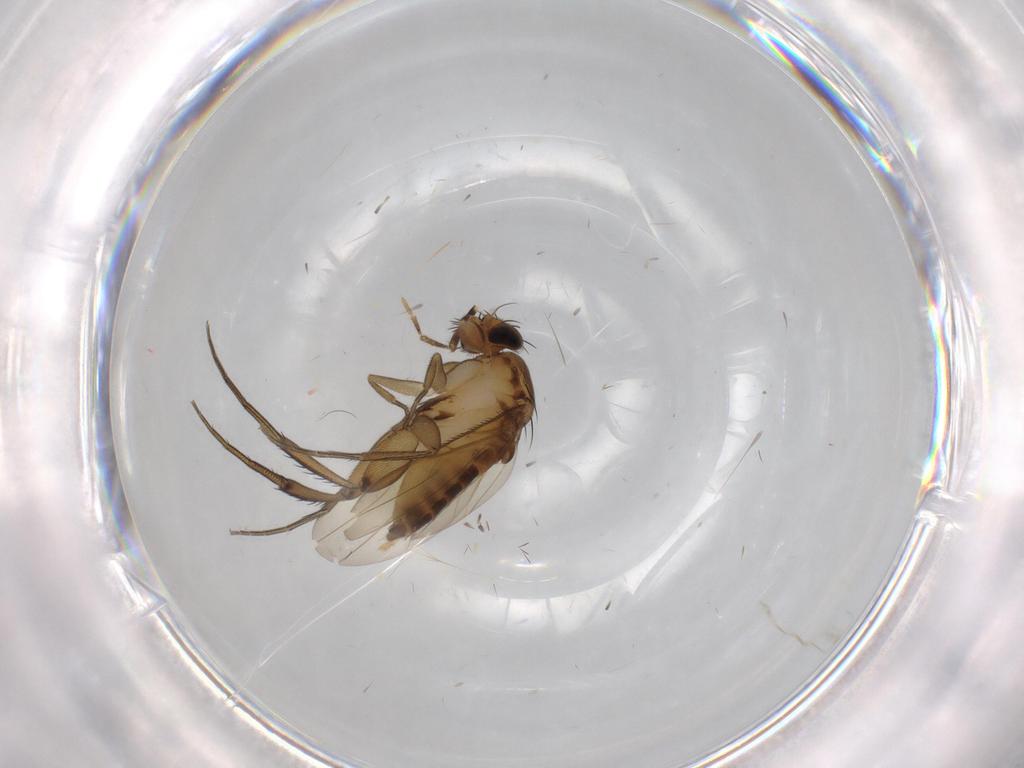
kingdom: Animalia
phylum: Arthropoda
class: Insecta
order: Diptera
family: Phoridae
